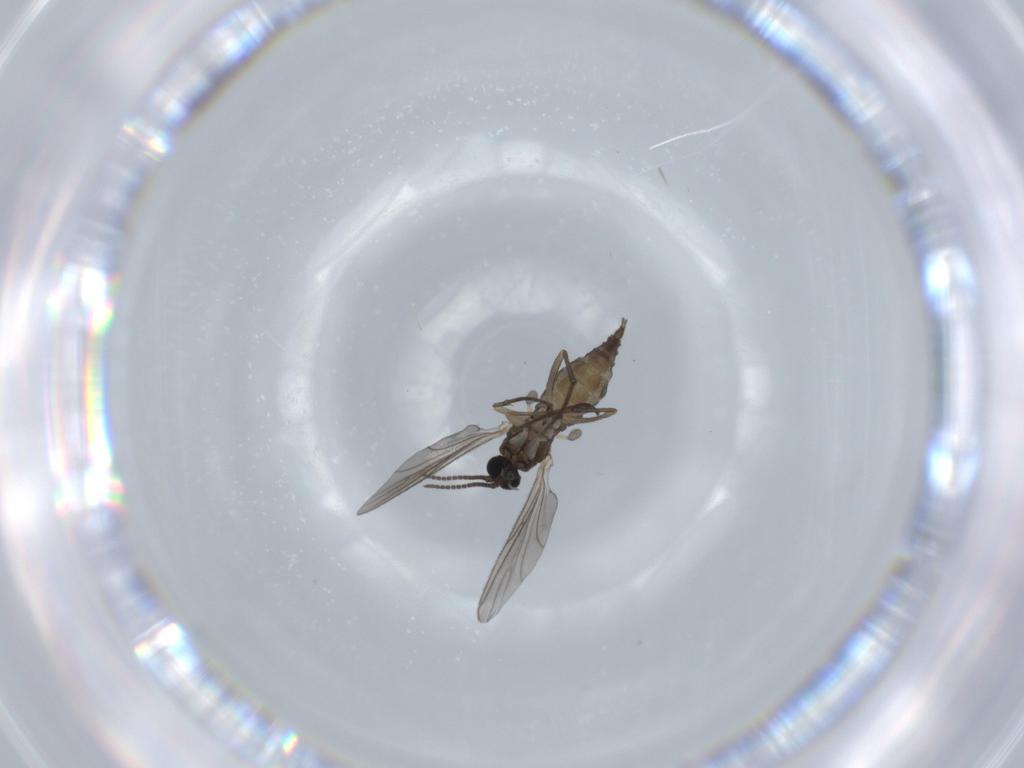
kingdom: Animalia
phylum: Arthropoda
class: Insecta
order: Diptera
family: Sciaridae
